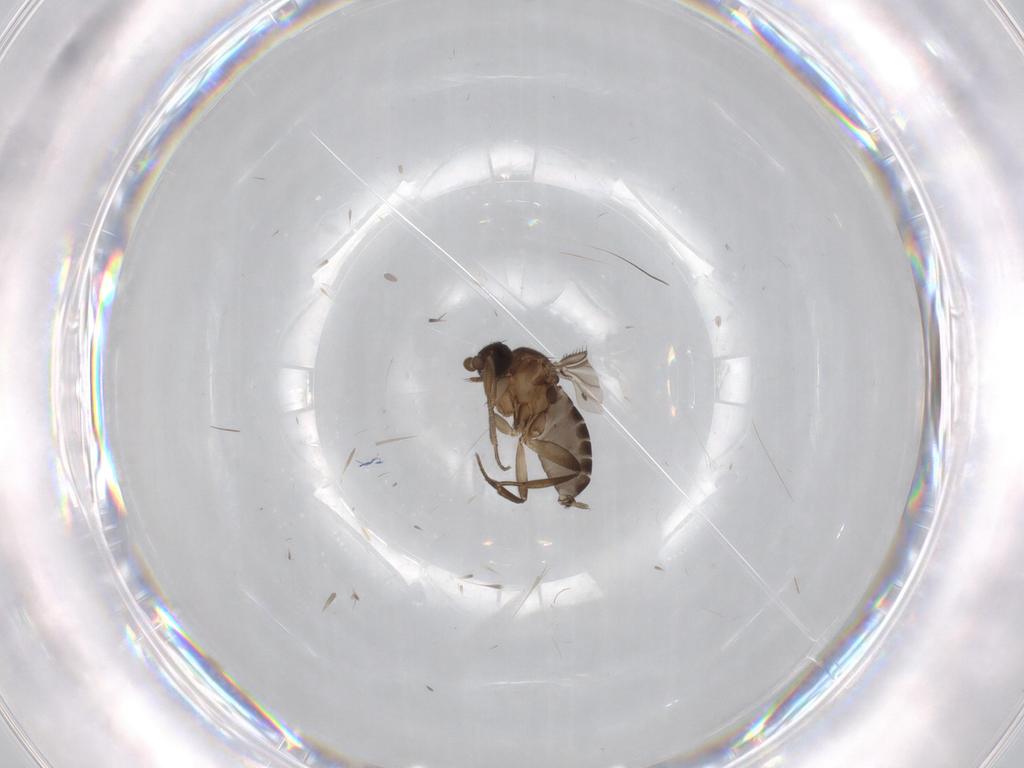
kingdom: Animalia
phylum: Arthropoda
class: Insecta
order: Diptera
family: Phoridae
